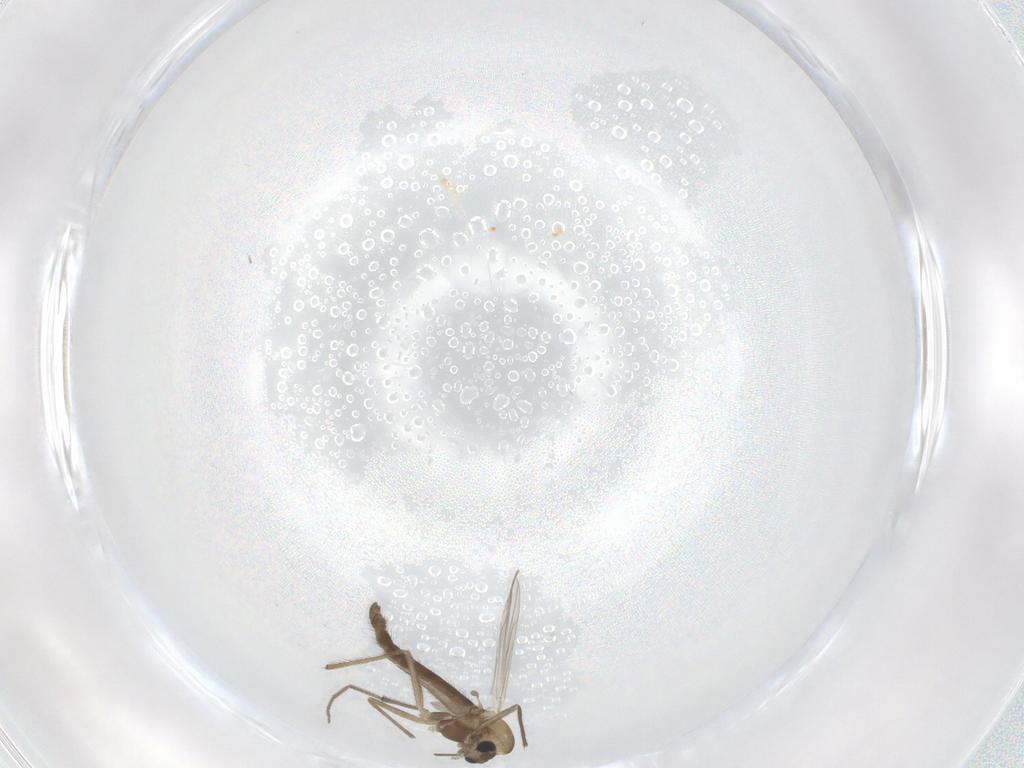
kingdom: Animalia
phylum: Arthropoda
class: Insecta
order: Diptera
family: Chironomidae
